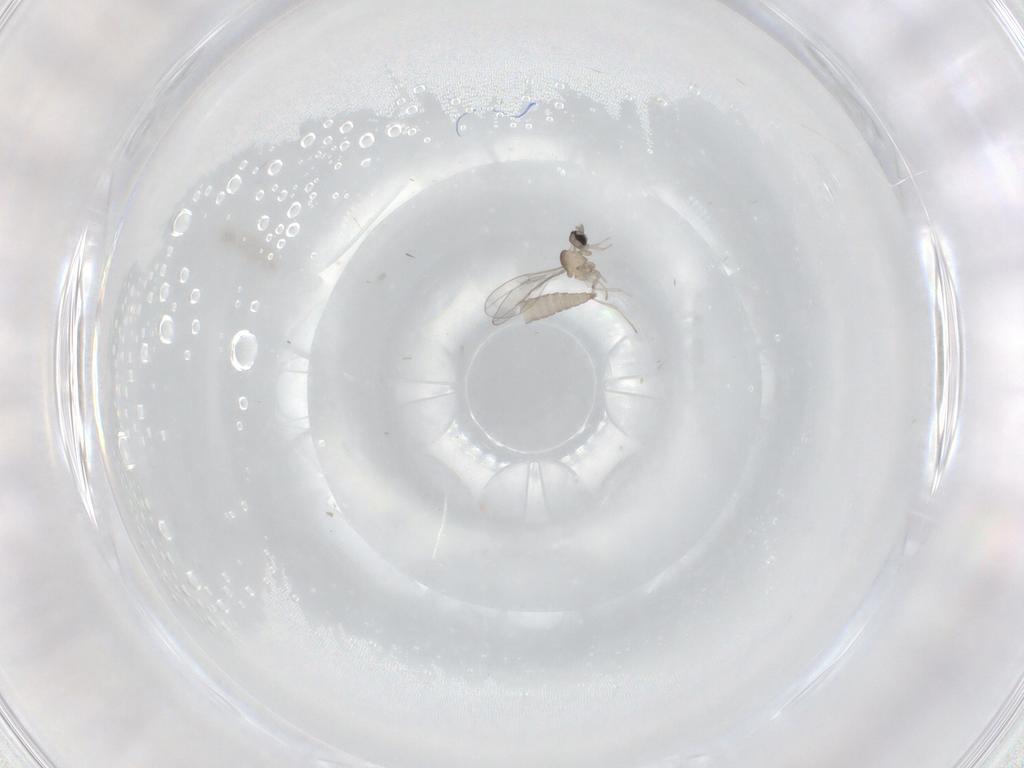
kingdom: Animalia
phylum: Arthropoda
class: Insecta
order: Diptera
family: Cecidomyiidae
